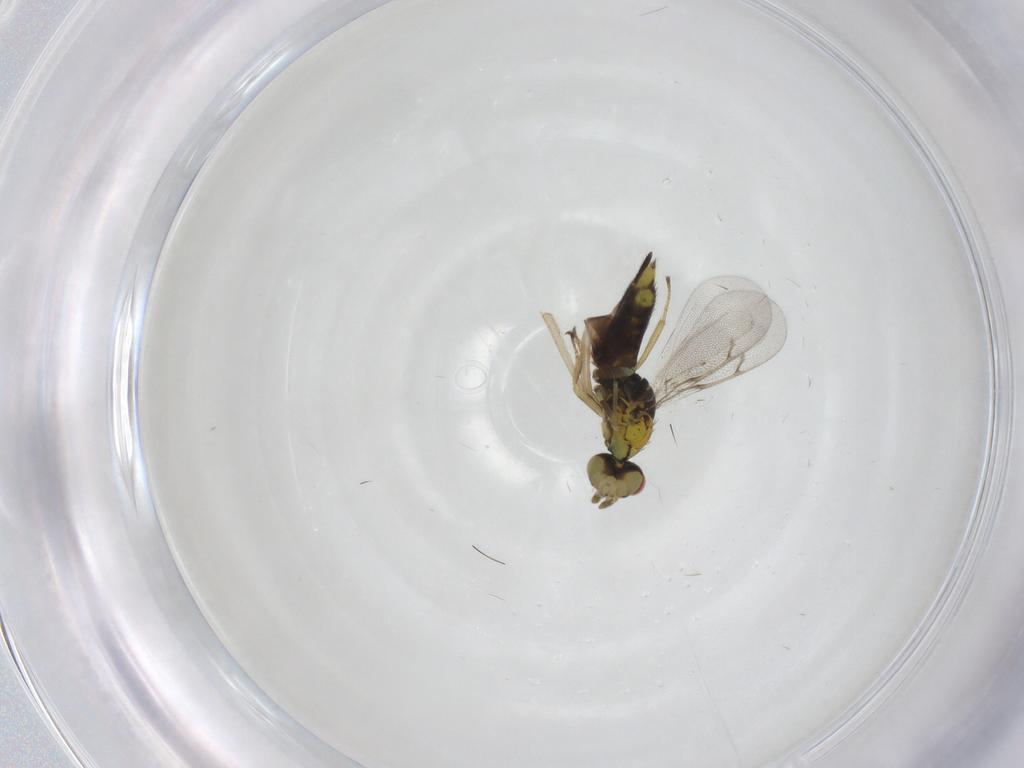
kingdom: Animalia
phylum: Arthropoda
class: Insecta
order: Hymenoptera
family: Eulophidae
